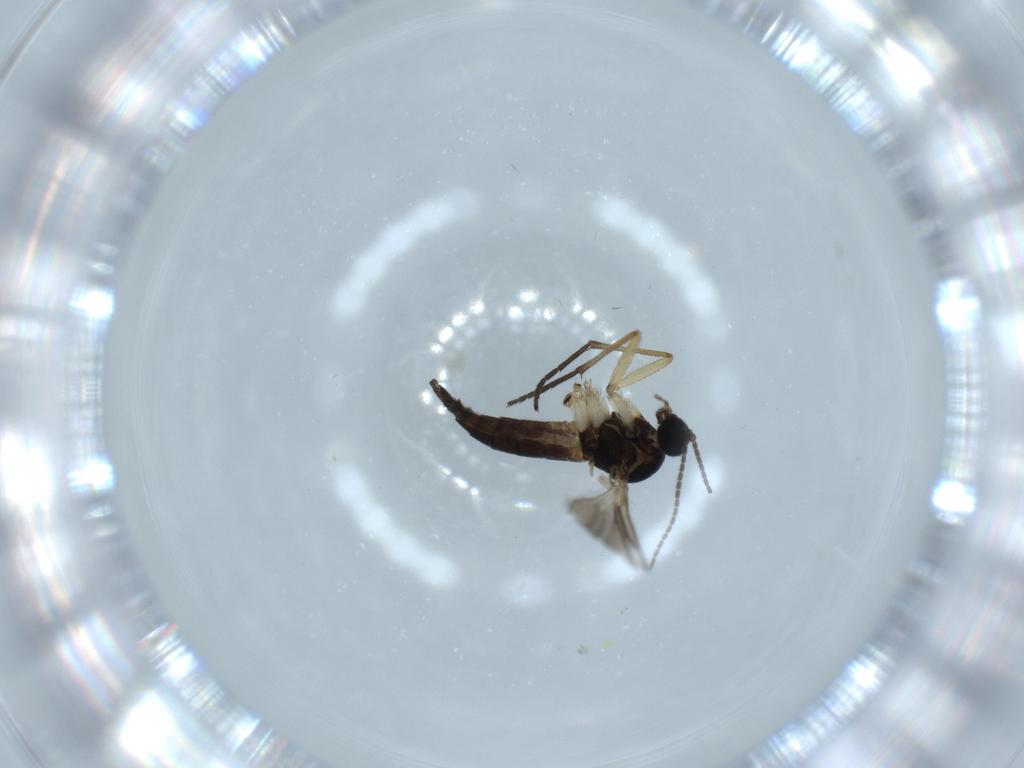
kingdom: Animalia
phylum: Arthropoda
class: Insecta
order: Diptera
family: Sciaridae
